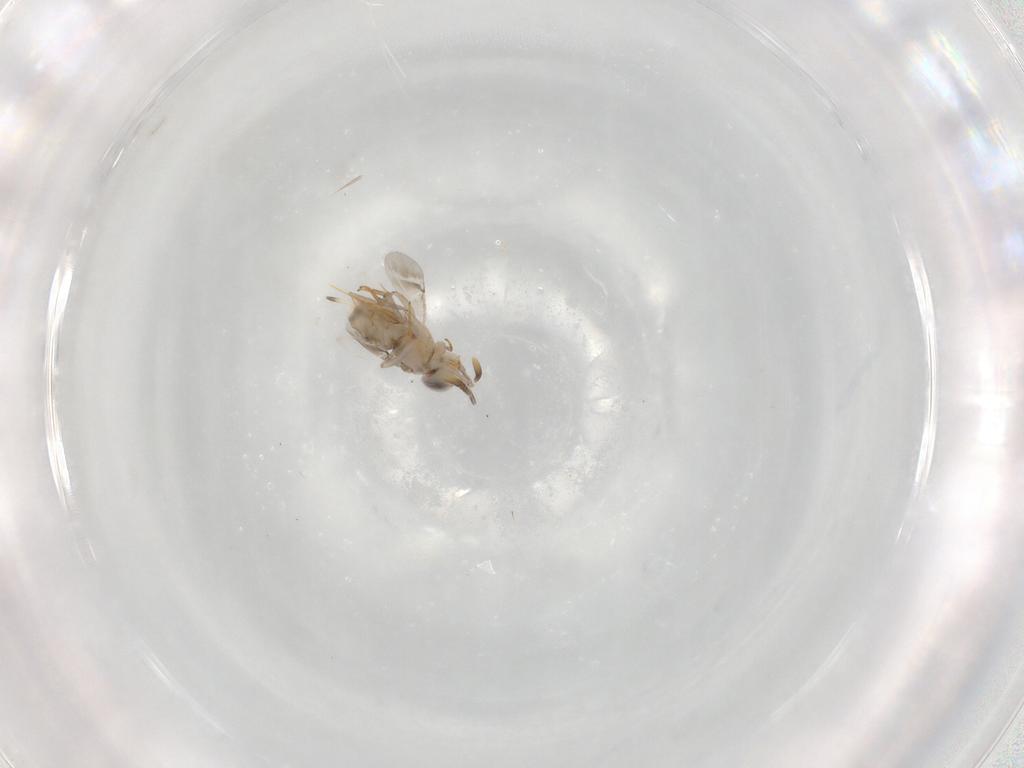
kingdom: Animalia
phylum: Arthropoda
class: Insecta
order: Hymenoptera
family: Encyrtidae
